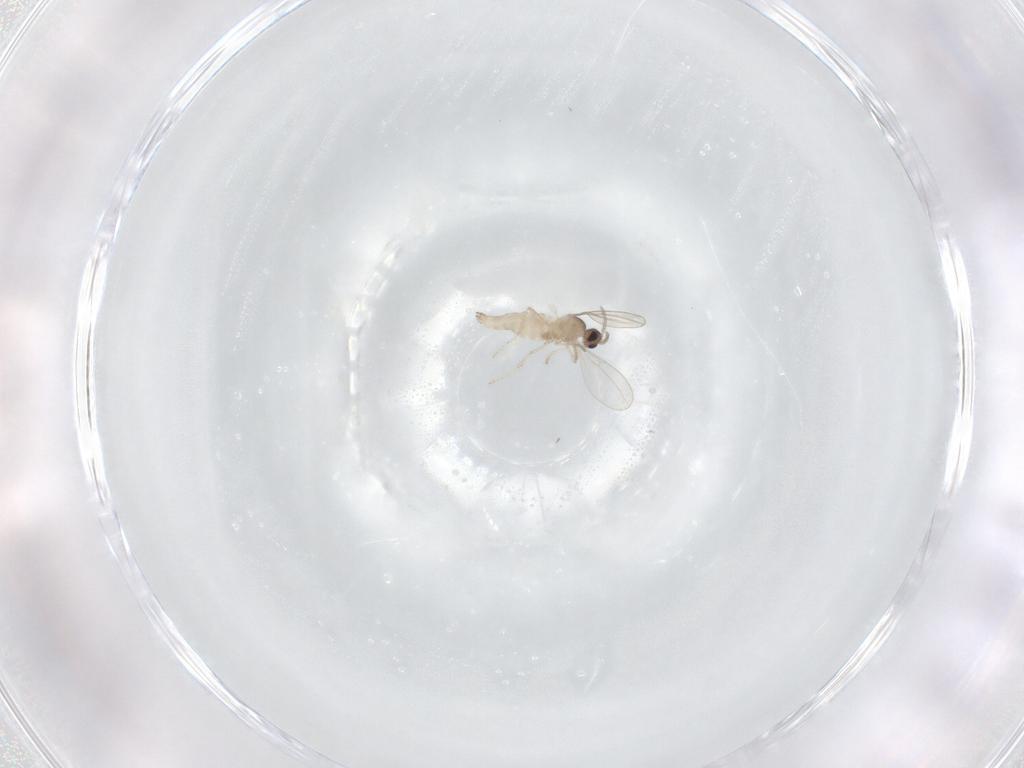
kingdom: Animalia
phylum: Arthropoda
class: Insecta
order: Diptera
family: Cecidomyiidae
